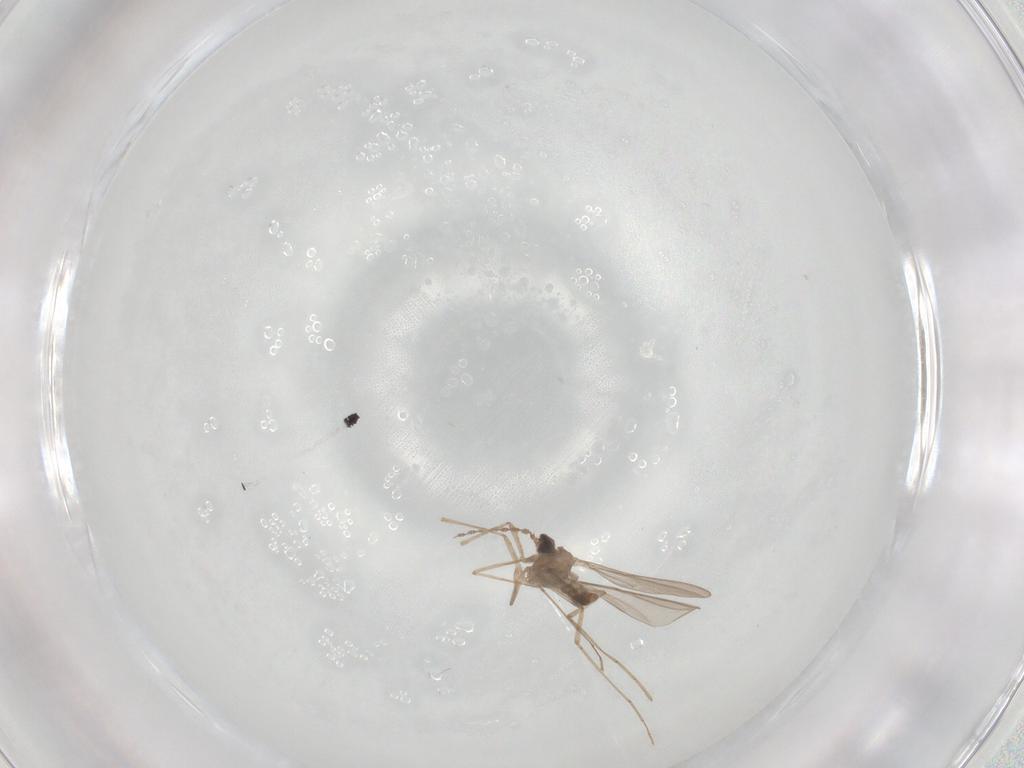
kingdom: Animalia
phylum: Arthropoda
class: Insecta
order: Diptera
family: Cecidomyiidae
